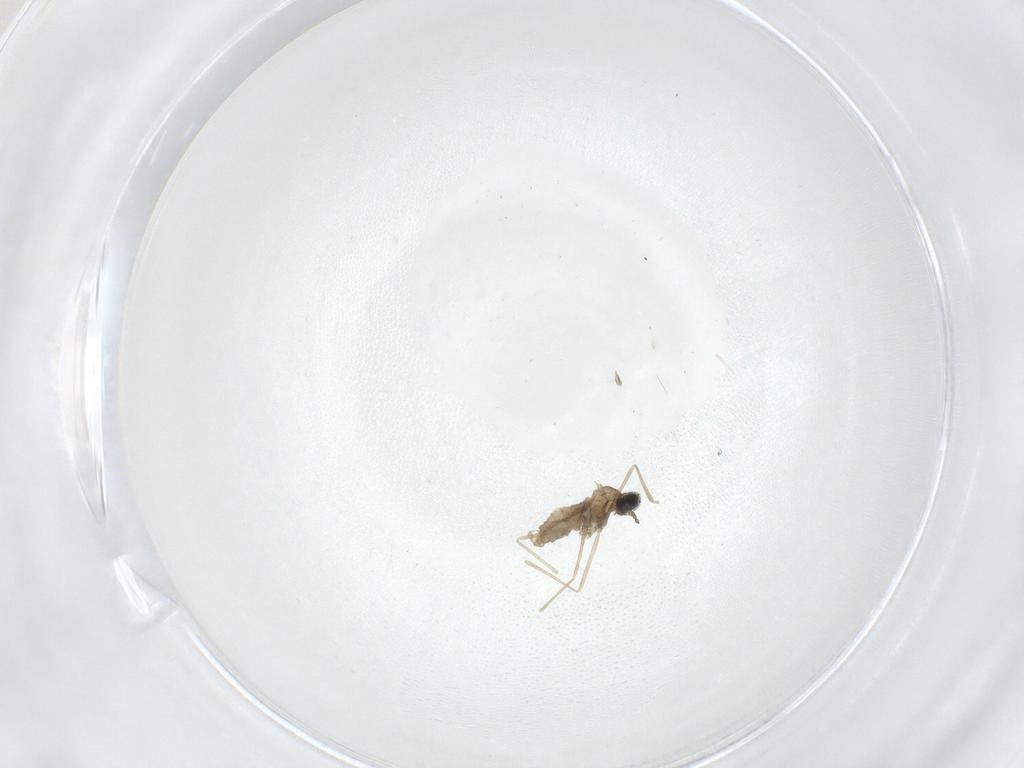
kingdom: Animalia
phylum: Arthropoda
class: Insecta
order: Diptera
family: Cecidomyiidae
